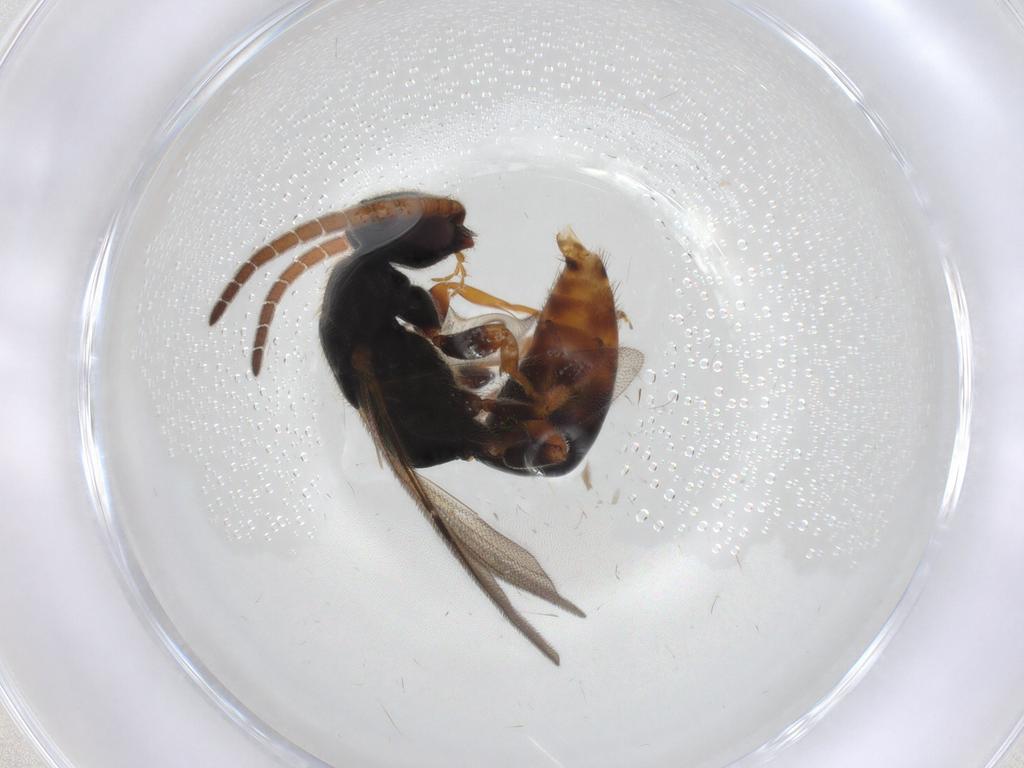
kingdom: Animalia
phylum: Arthropoda
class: Insecta
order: Hymenoptera
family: Bethylidae
